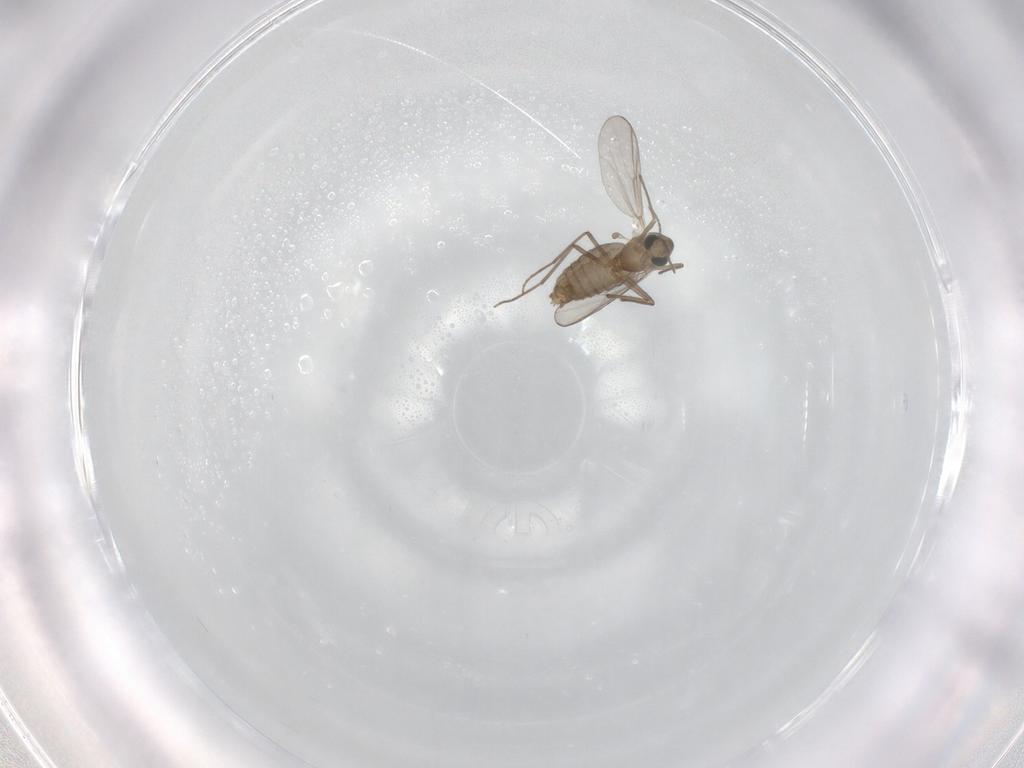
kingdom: Animalia
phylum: Arthropoda
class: Insecta
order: Diptera
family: Chironomidae
